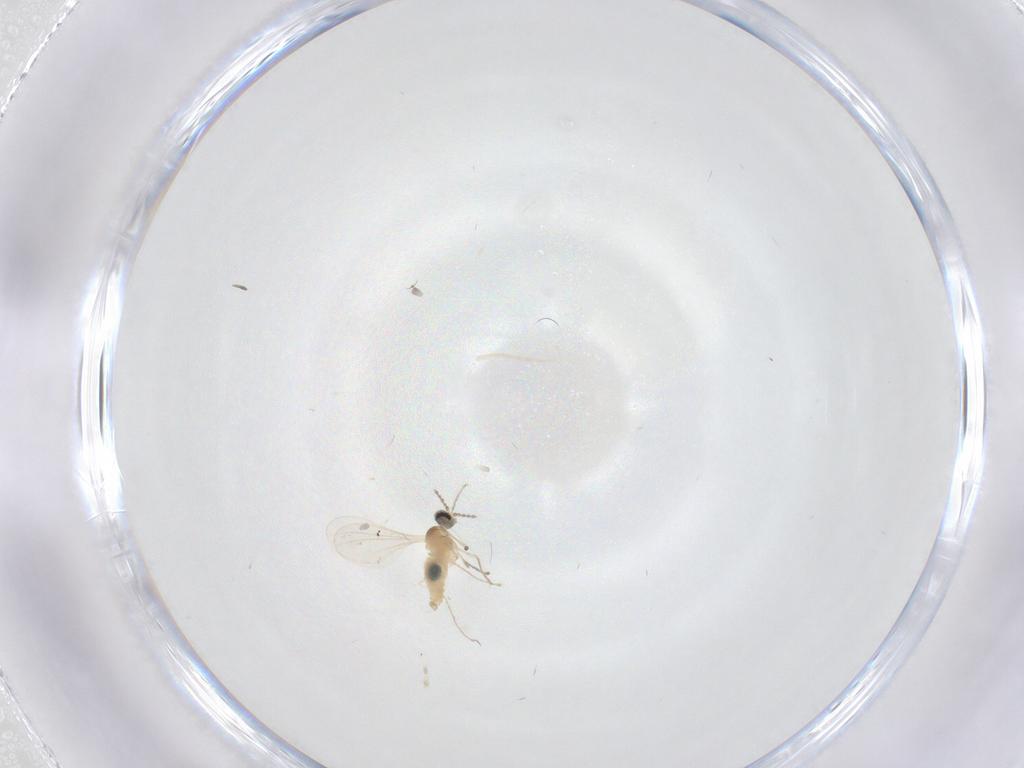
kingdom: Animalia
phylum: Arthropoda
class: Insecta
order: Diptera
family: Cecidomyiidae
